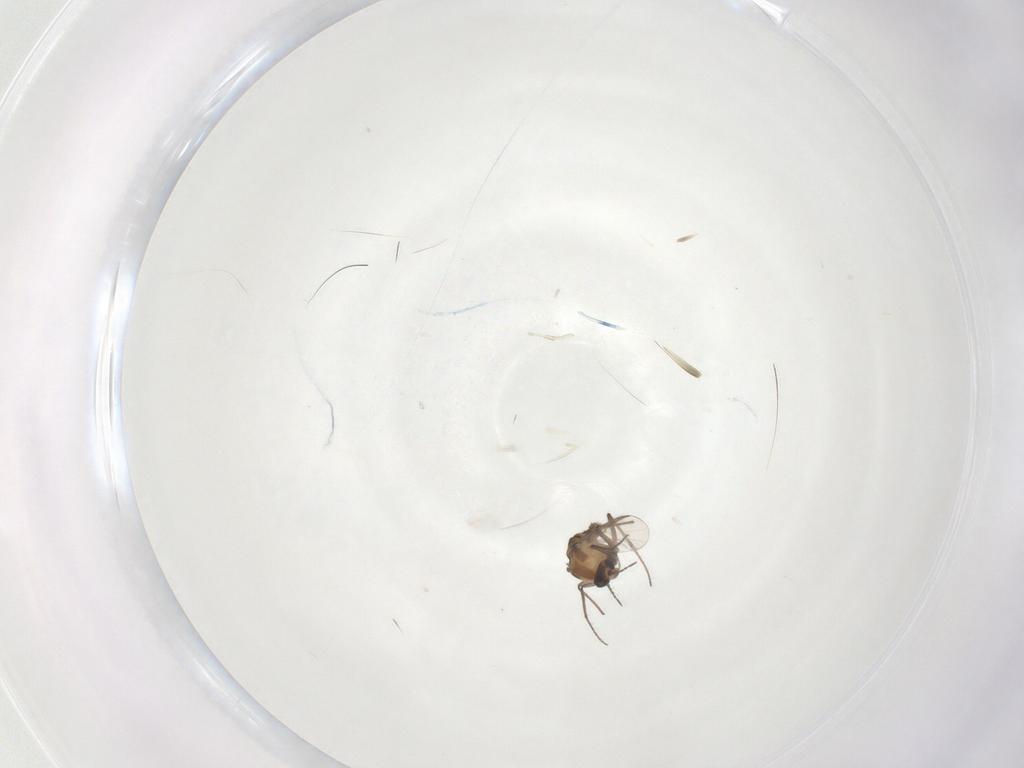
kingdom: Animalia
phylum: Arthropoda
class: Insecta
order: Diptera
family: Chironomidae
